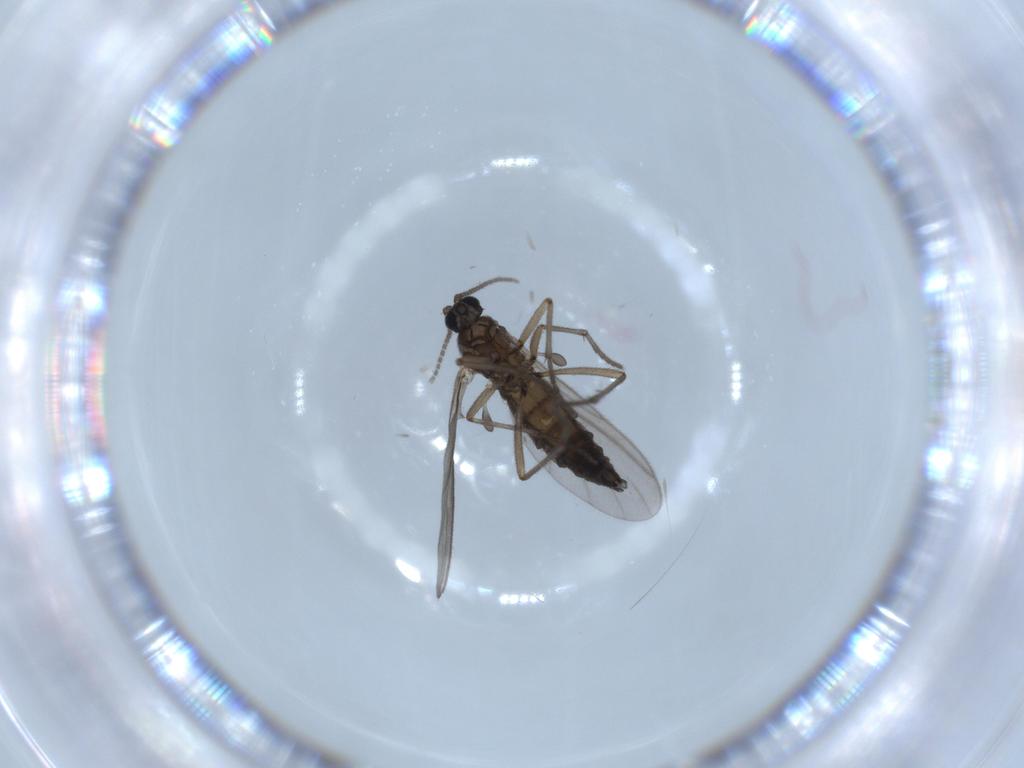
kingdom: Animalia
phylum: Arthropoda
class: Insecta
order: Diptera
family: Sciaridae
